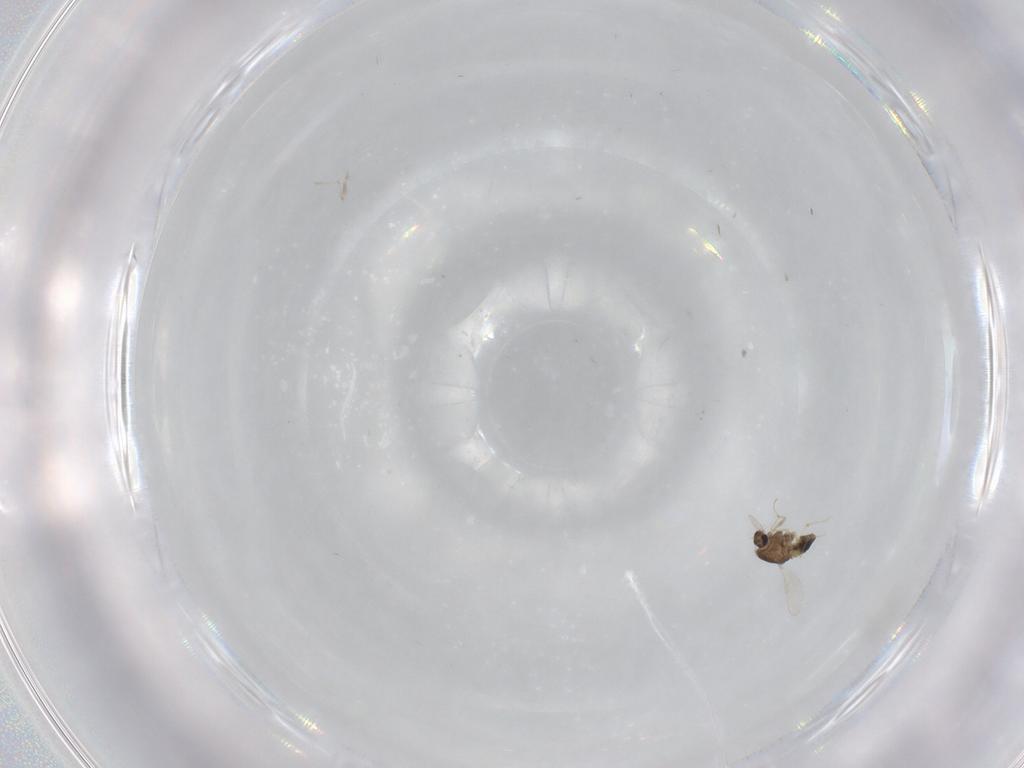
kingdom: Animalia
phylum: Arthropoda
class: Insecta
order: Diptera
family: Chironomidae
